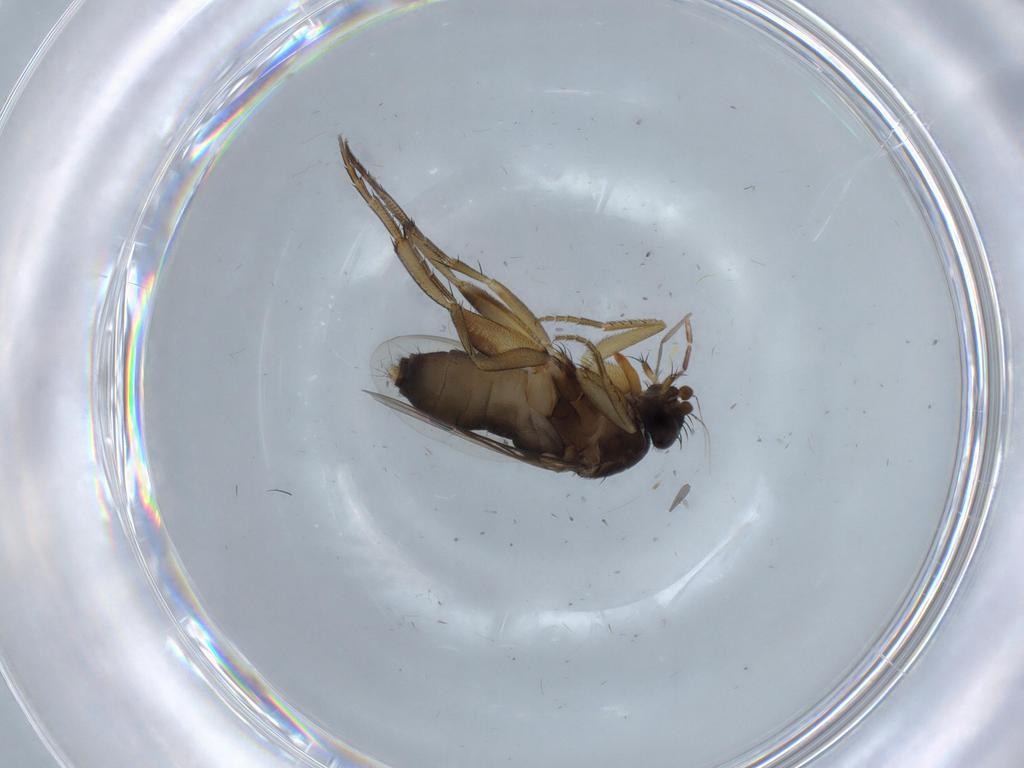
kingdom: Animalia
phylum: Arthropoda
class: Insecta
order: Diptera
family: Phoridae
